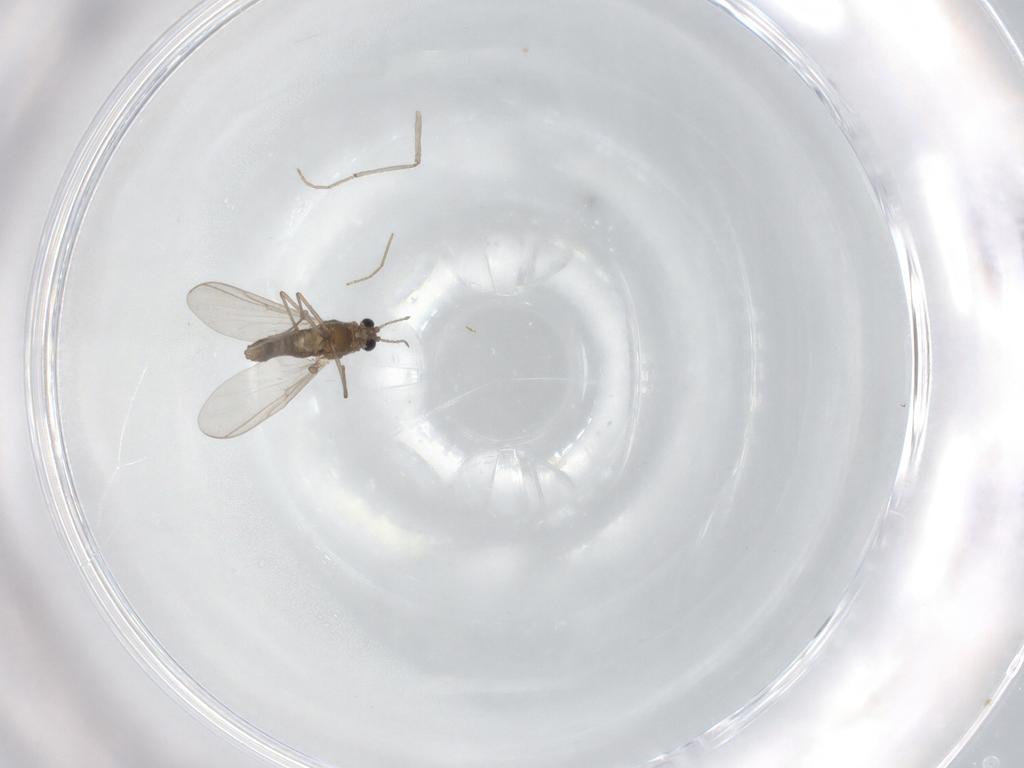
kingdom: Animalia
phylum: Arthropoda
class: Insecta
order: Diptera
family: Chironomidae
